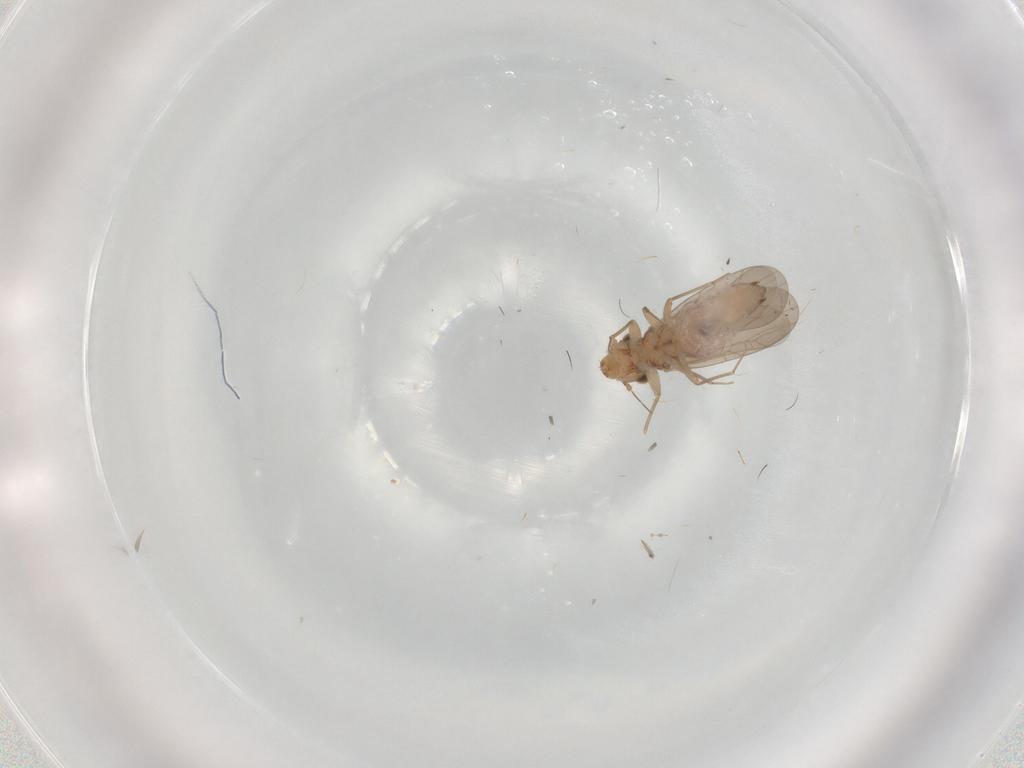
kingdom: Animalia
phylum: Arthropoda
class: Insecta
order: Psocodea
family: Lepidopsocidae
